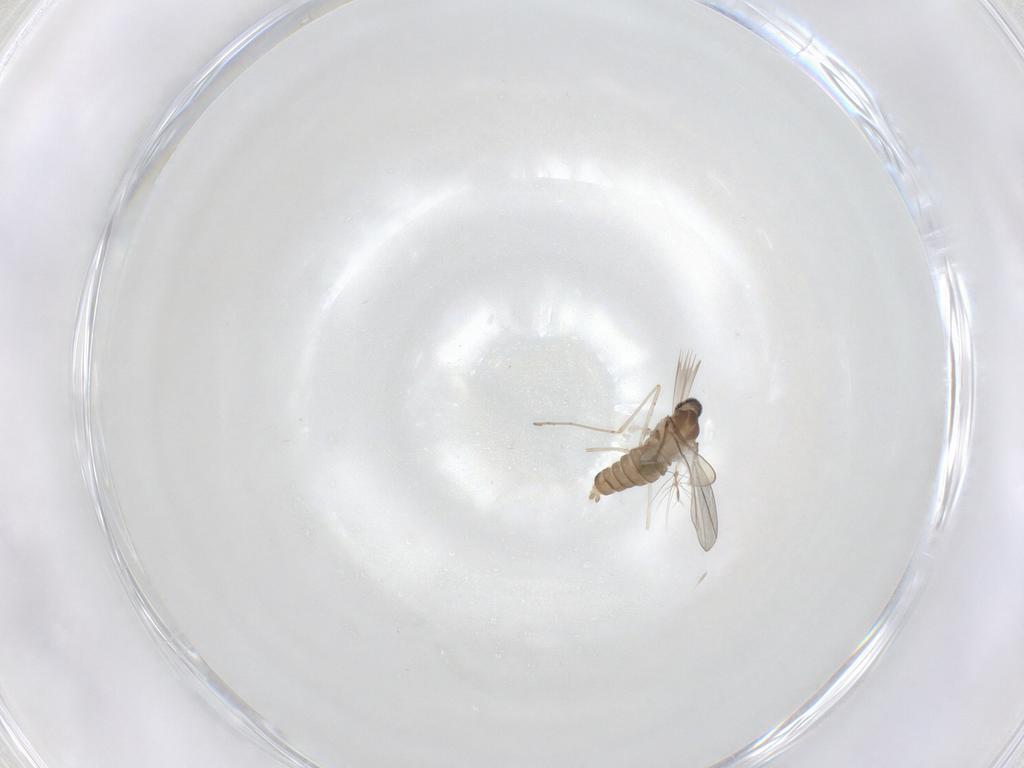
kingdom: Animalia
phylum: Arthropoda
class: Insecta
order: Diptera
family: Cecidomyiidae
